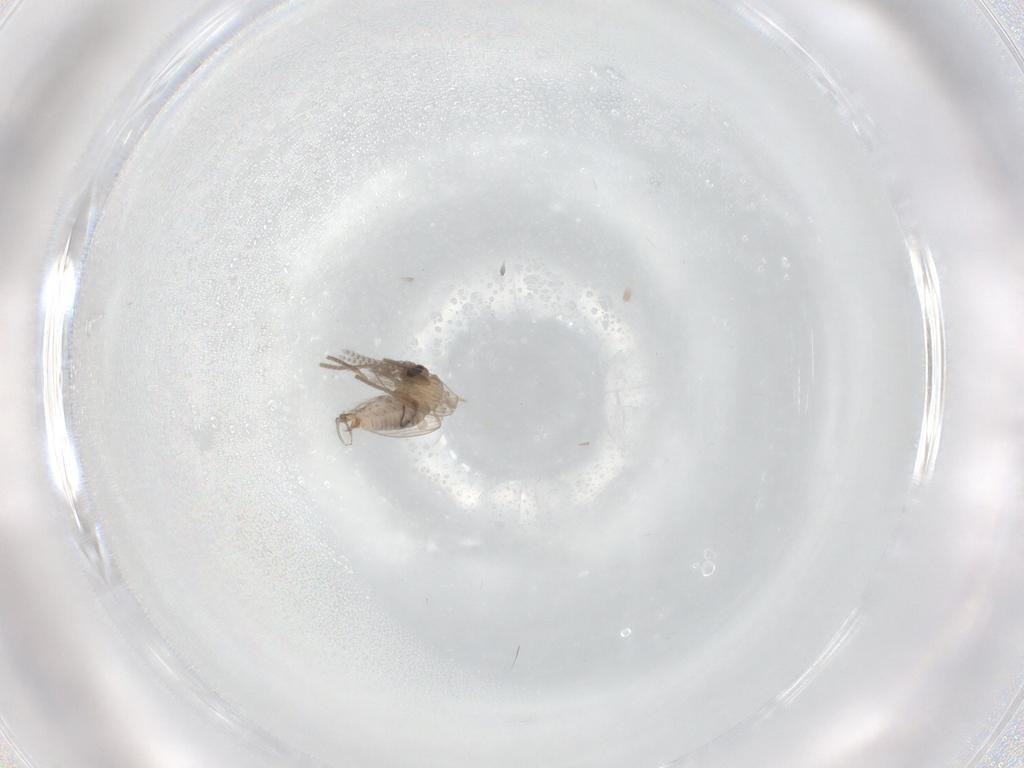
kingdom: Animalia
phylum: Arthropoda
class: Insecta
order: Diptera
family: Psychodidae
